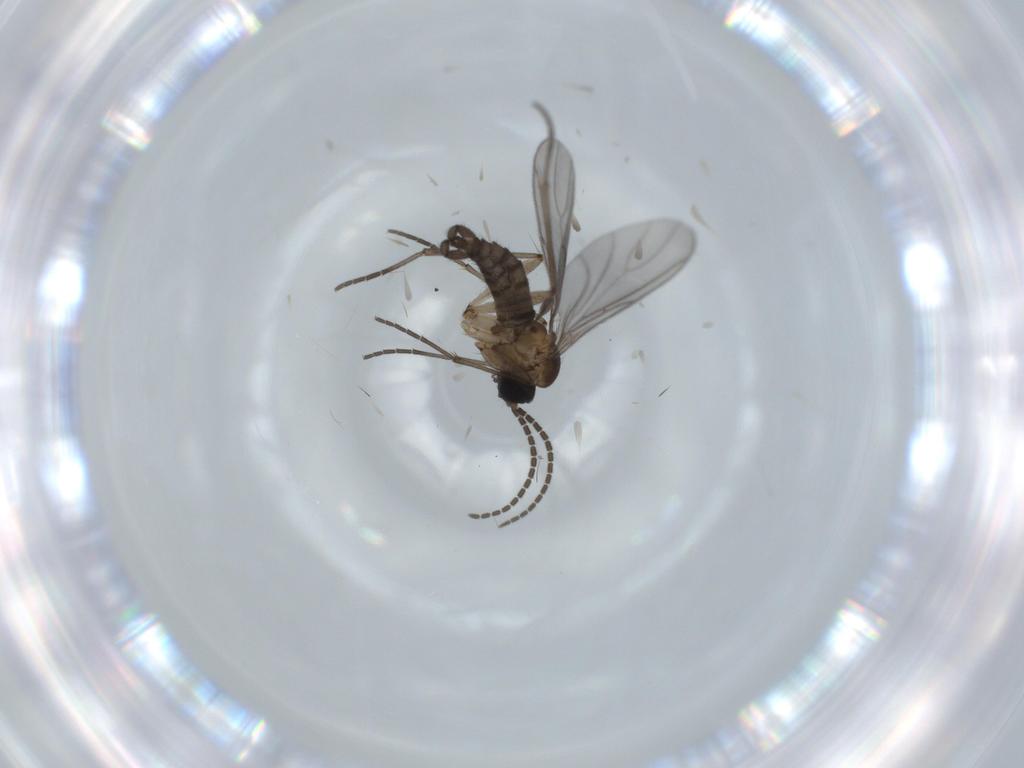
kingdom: Animalia
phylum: Arthropoda
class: Insecta
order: Diptera
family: Sciaridae
